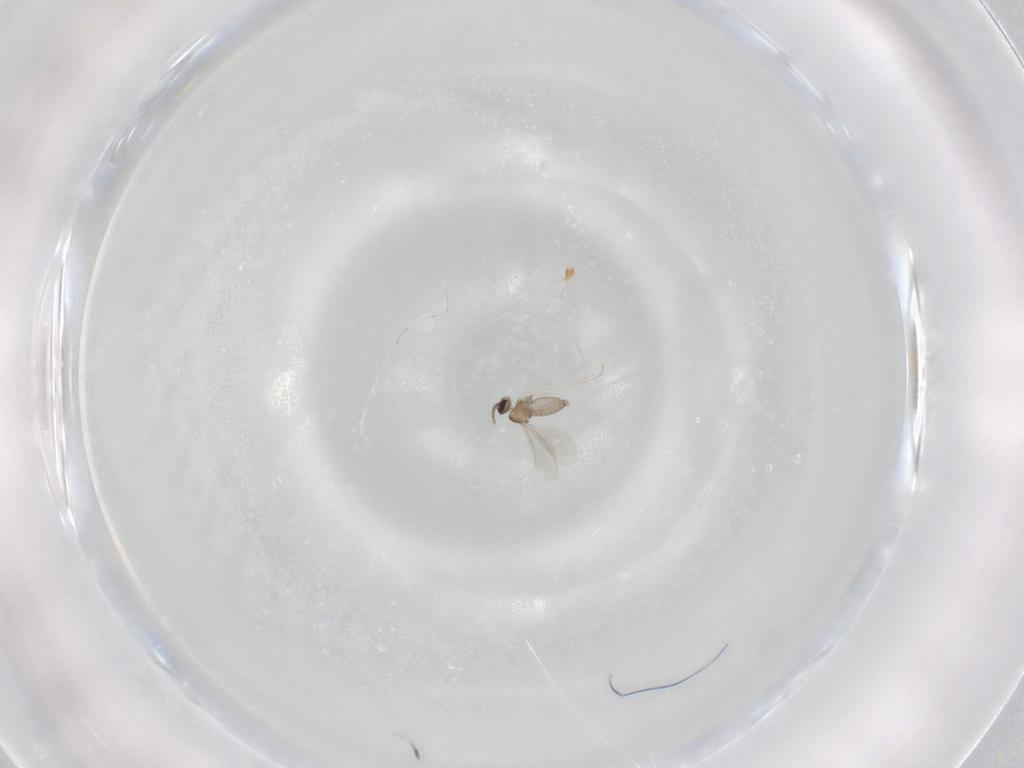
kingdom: Animalia
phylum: Arthropoda
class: Insecta
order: Diptera
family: Cecidomyiidae
